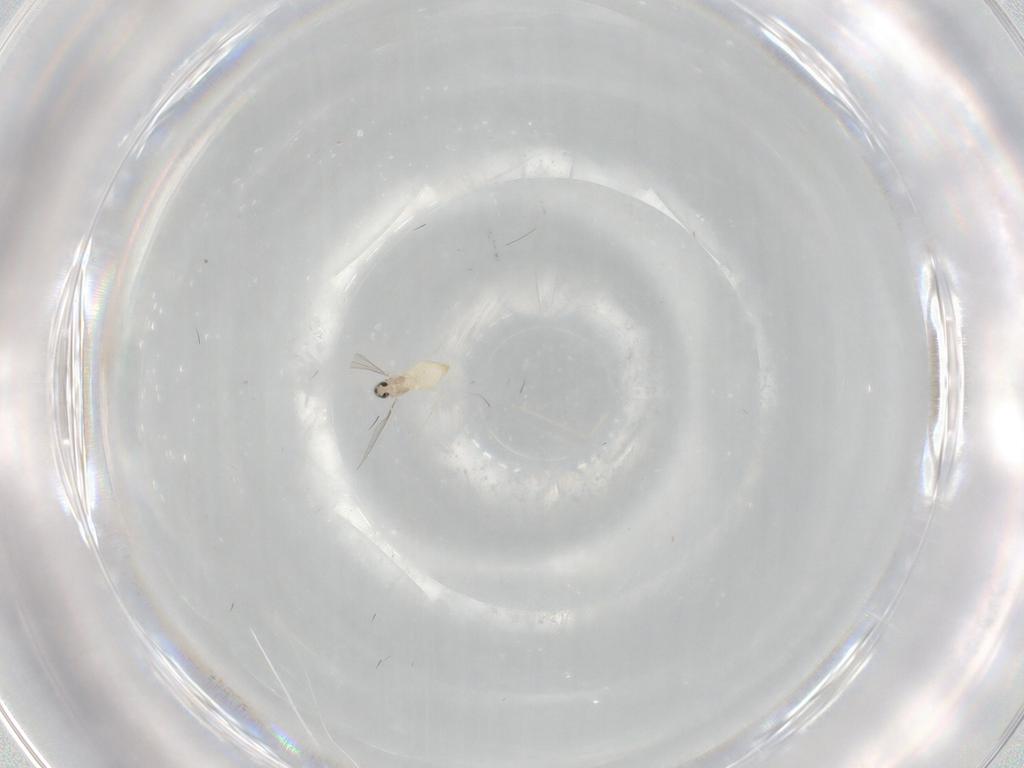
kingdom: Animalia
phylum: Arthropoda
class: Insecta
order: Diptera
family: Cecidomyiidae
